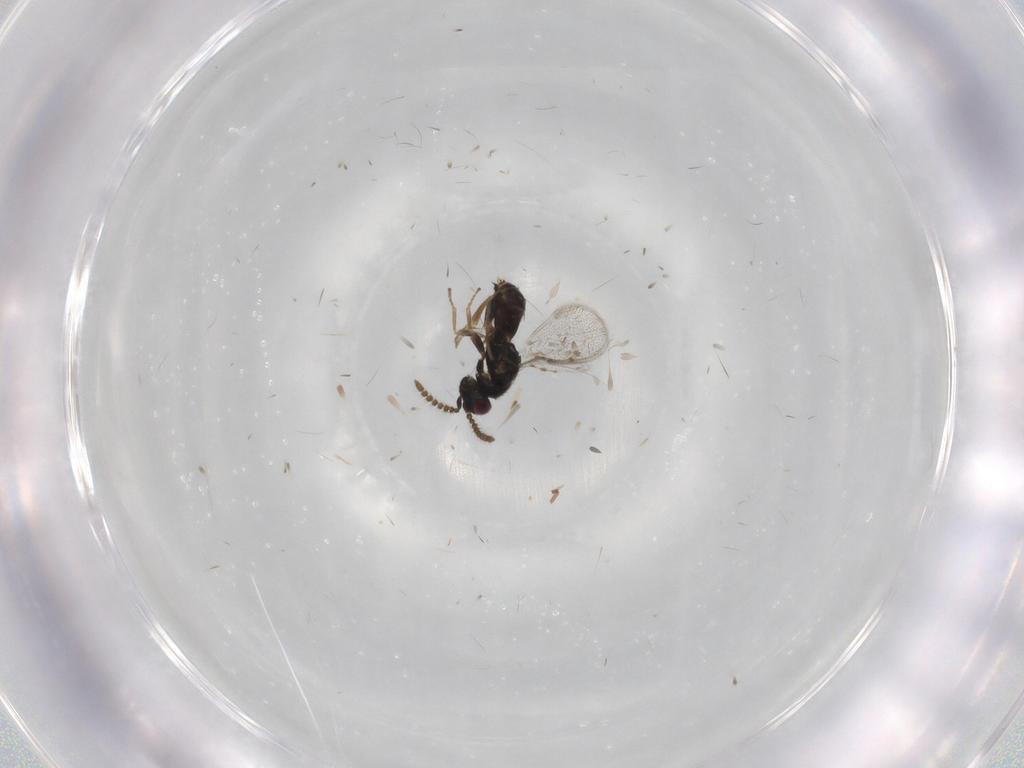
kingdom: Animalia
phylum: Arthropoda
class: Insecta
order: Hymenoptera
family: Pirenidae
